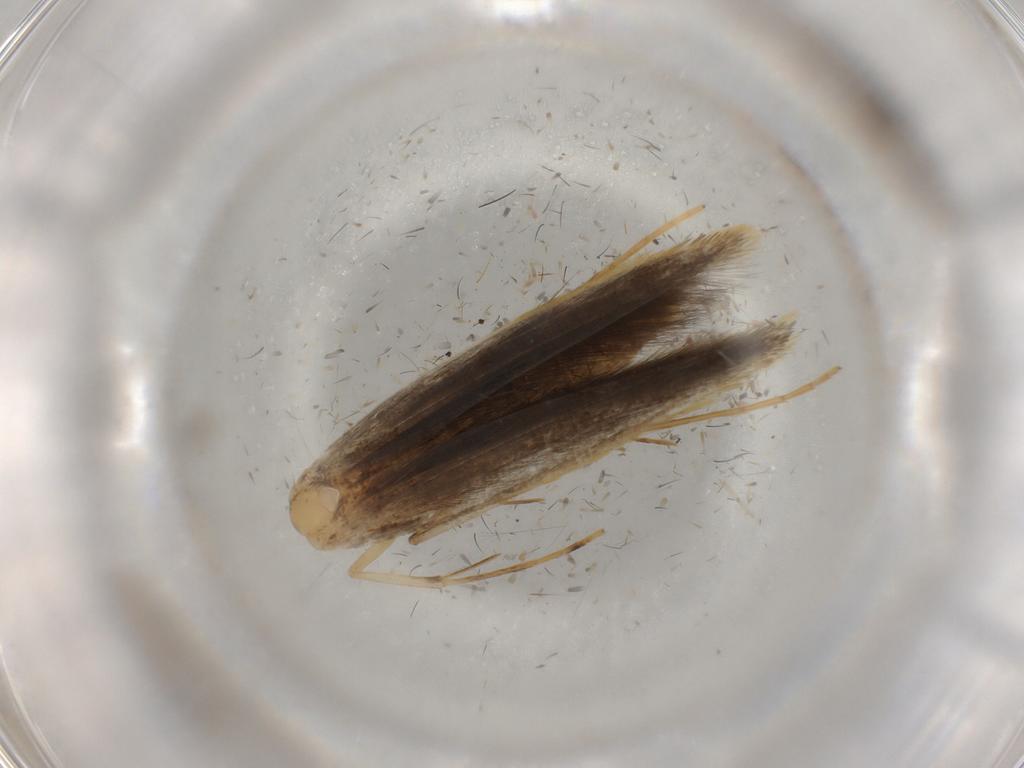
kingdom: Animalia
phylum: Arthropoda
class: Insecta
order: Lepidoptera
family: Pterolonchidae
